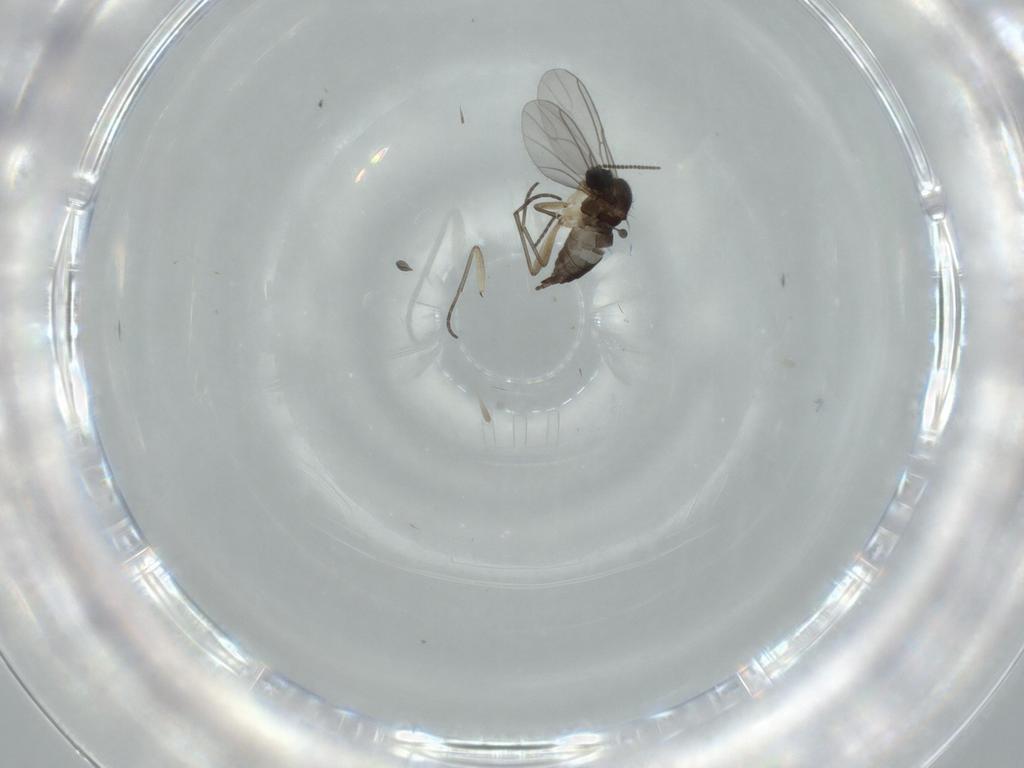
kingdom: Animalia
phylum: Arthropoda
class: Insecta
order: Diptera
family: Sciaridae
